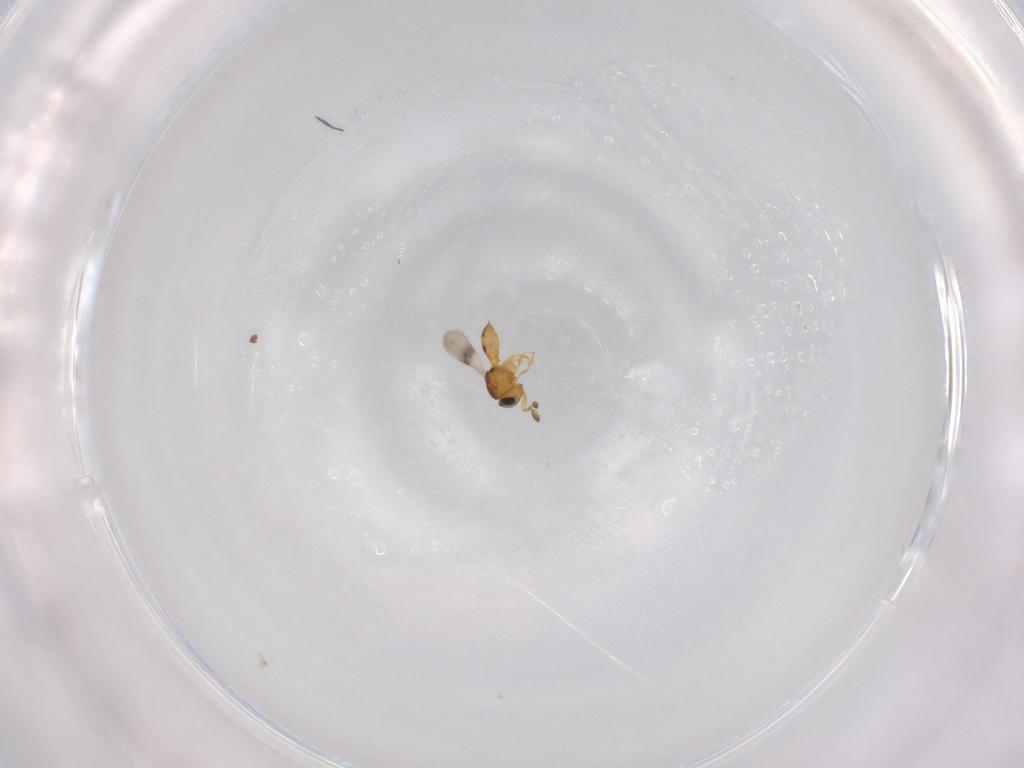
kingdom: Animalia
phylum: Arthropoda
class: Insecta
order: Hymenoptera
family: Scelionidae
